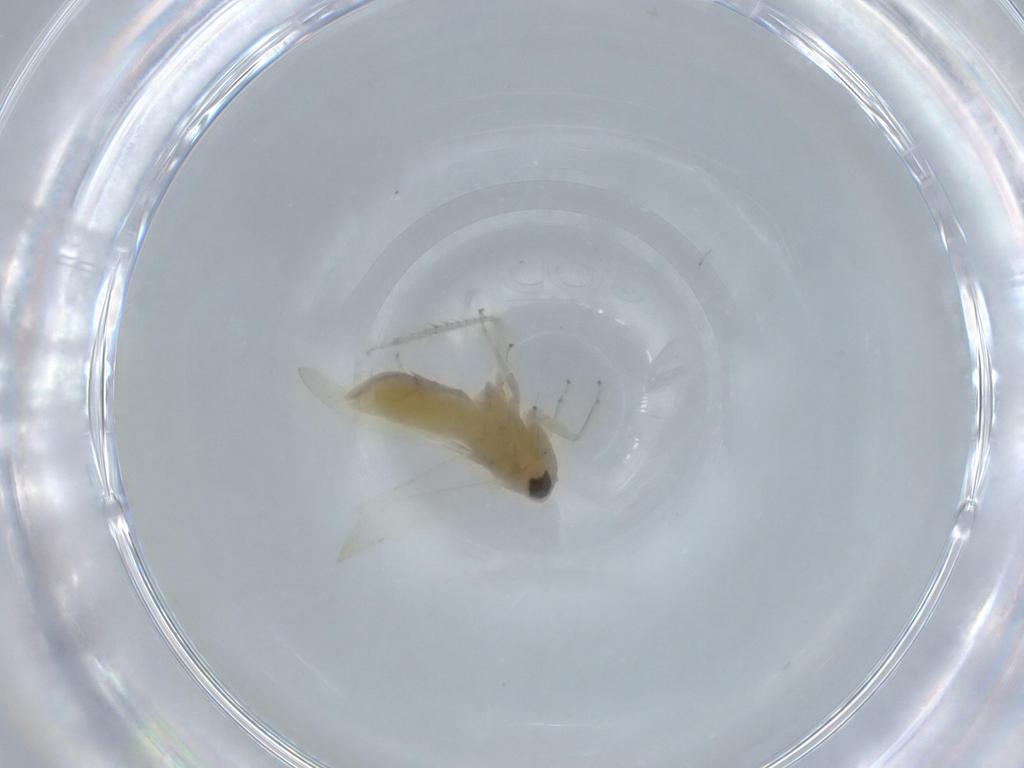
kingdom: Animalia
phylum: Arthropoda
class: Insecta
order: Hemiptera
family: Cicadellidae
